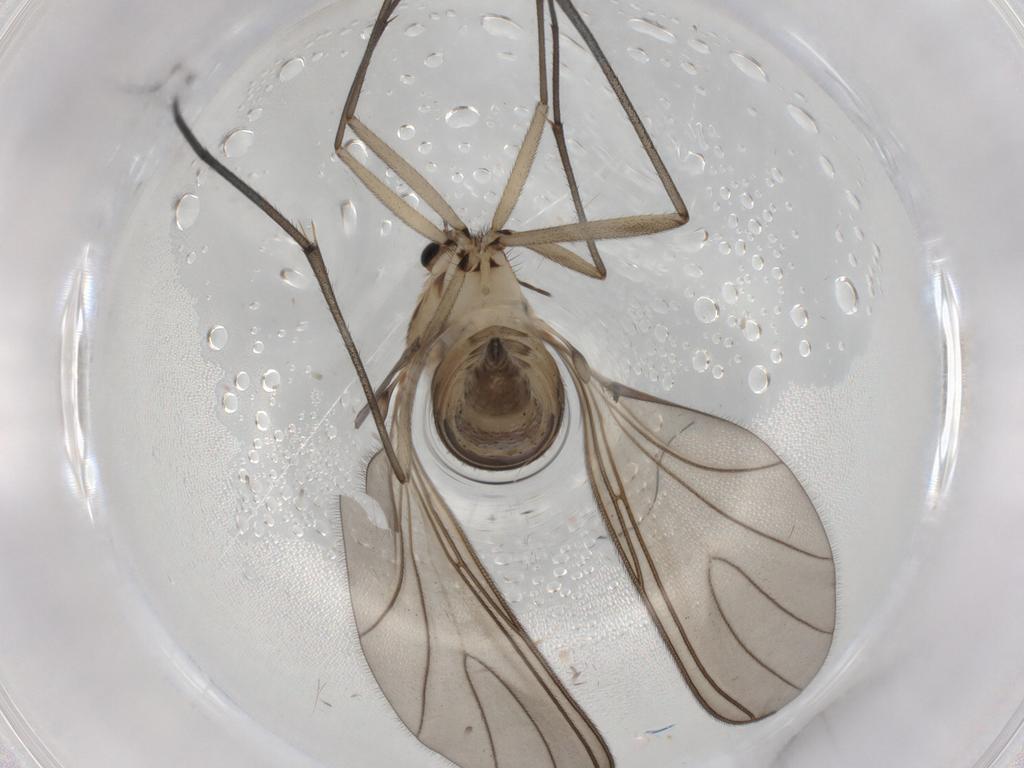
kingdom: Animalia
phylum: Arthropoda
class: Insecta
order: Diptera
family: Sciaridae
